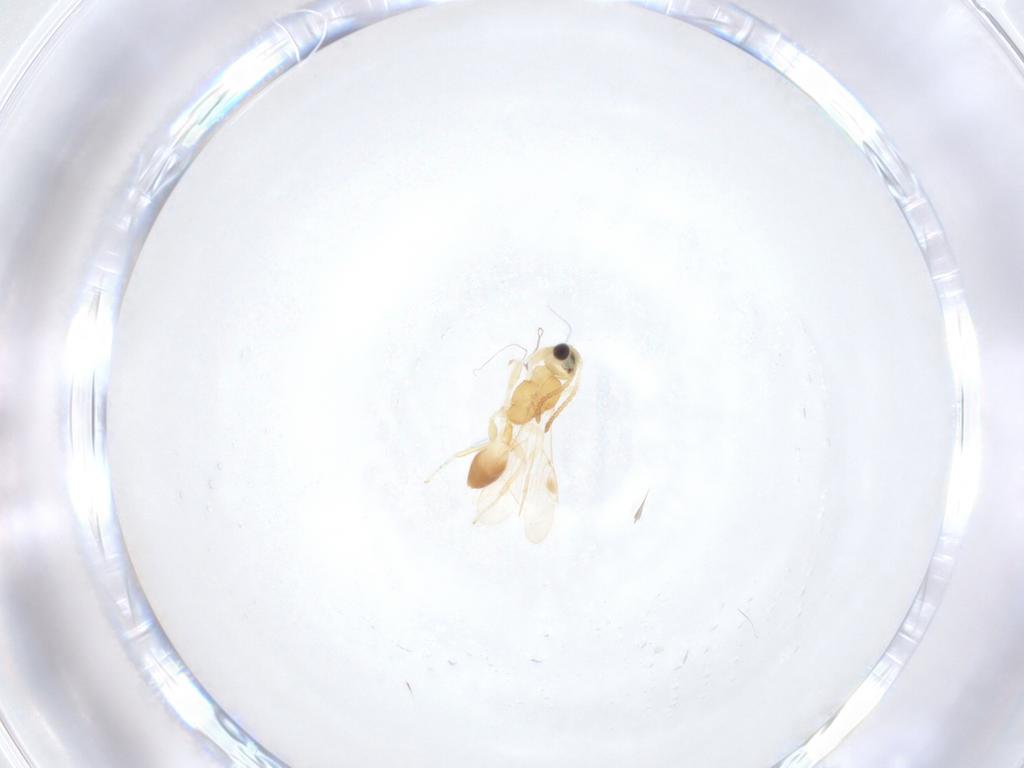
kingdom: Animalia
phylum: Arthropoda
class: Insecta
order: Hymenoptera
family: Braconidae
